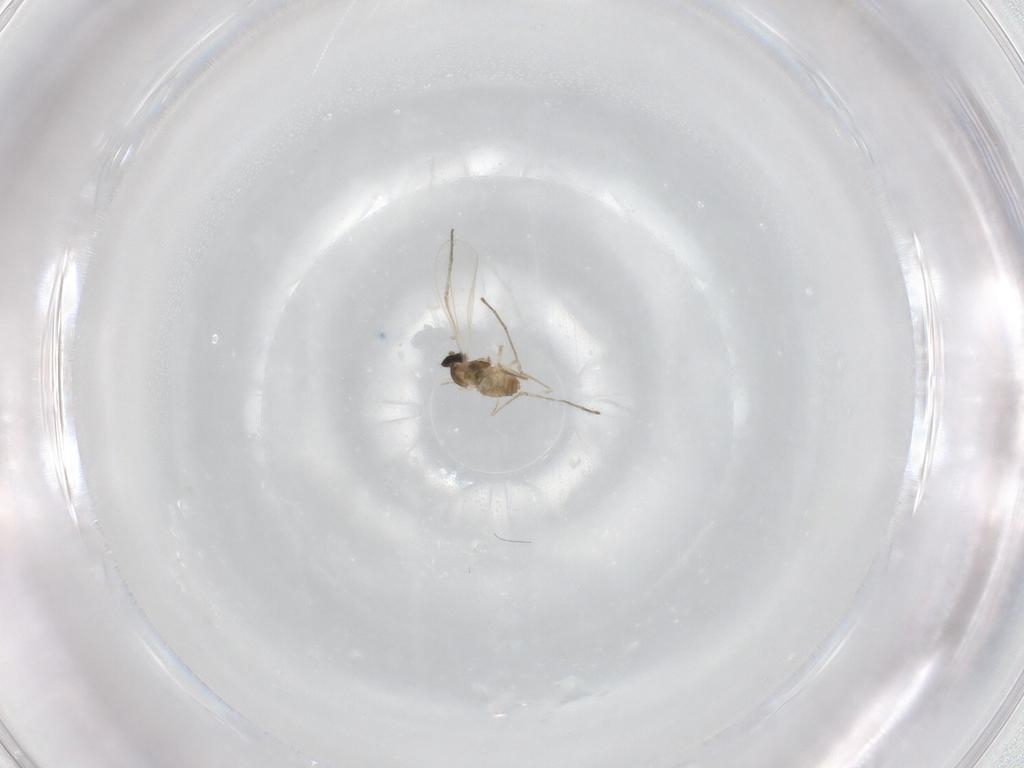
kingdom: Animalia
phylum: Arthropoda
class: Insecta
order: Diptera
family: Cecidomyiidae
